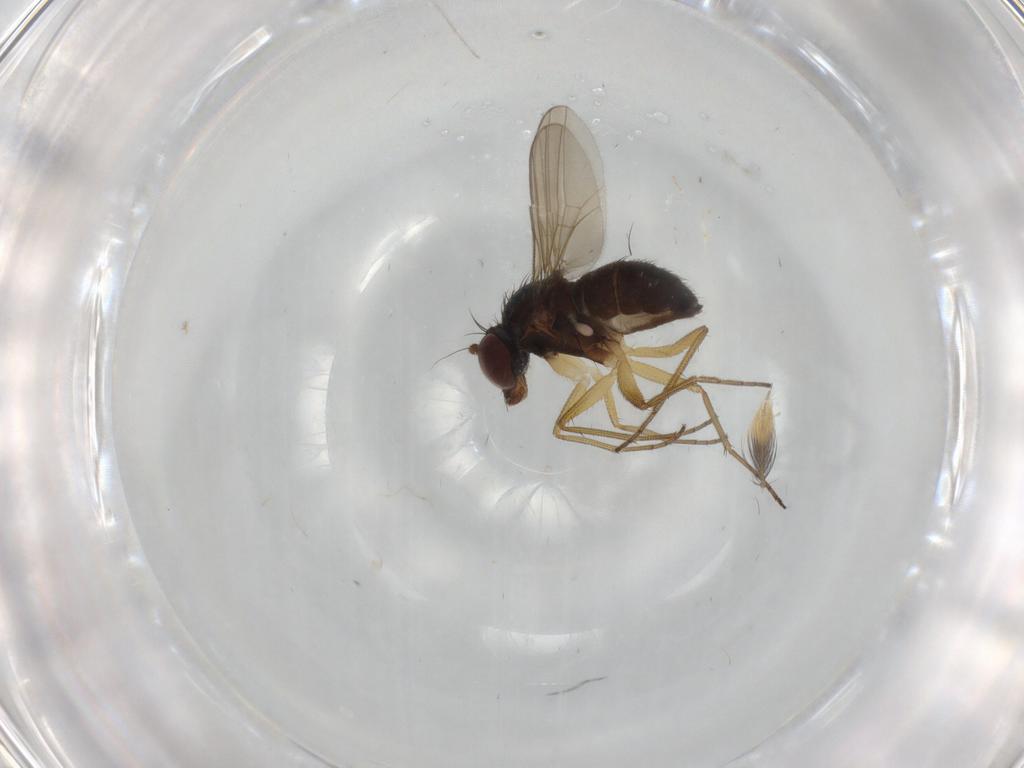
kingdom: Animalia
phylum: Arthropoda
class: Insecta
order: Diptera
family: Dolichopodidae
